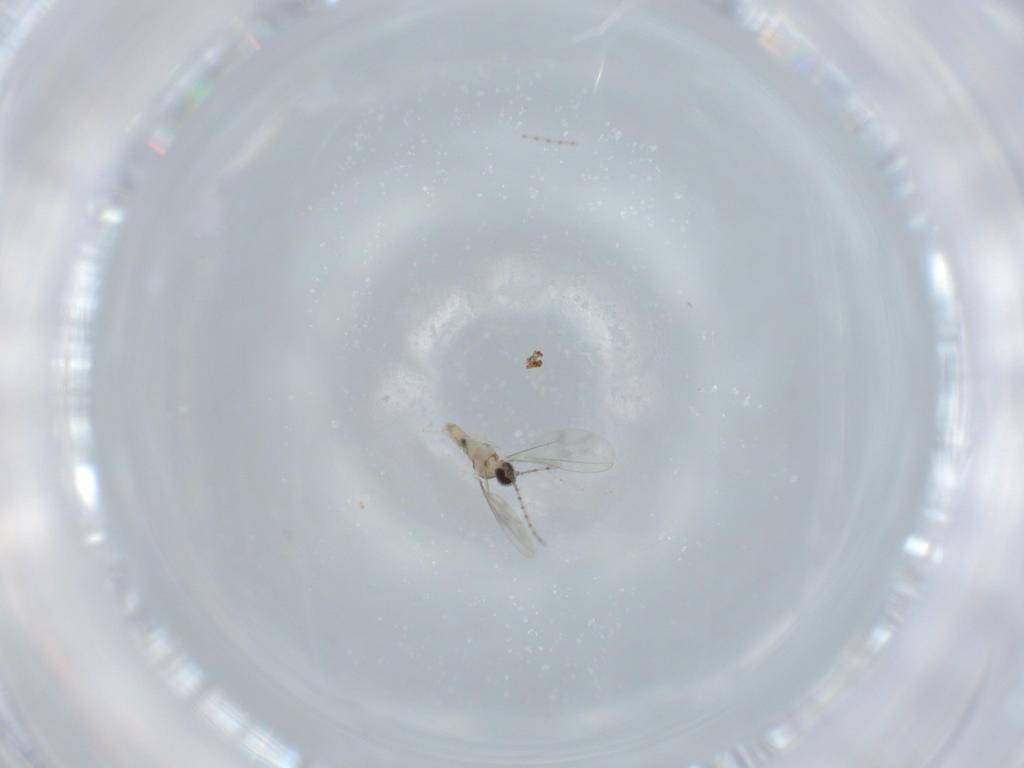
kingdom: Animalia
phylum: Arthropoda
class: Insecta
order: Diptera
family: Cecidomyiidae
